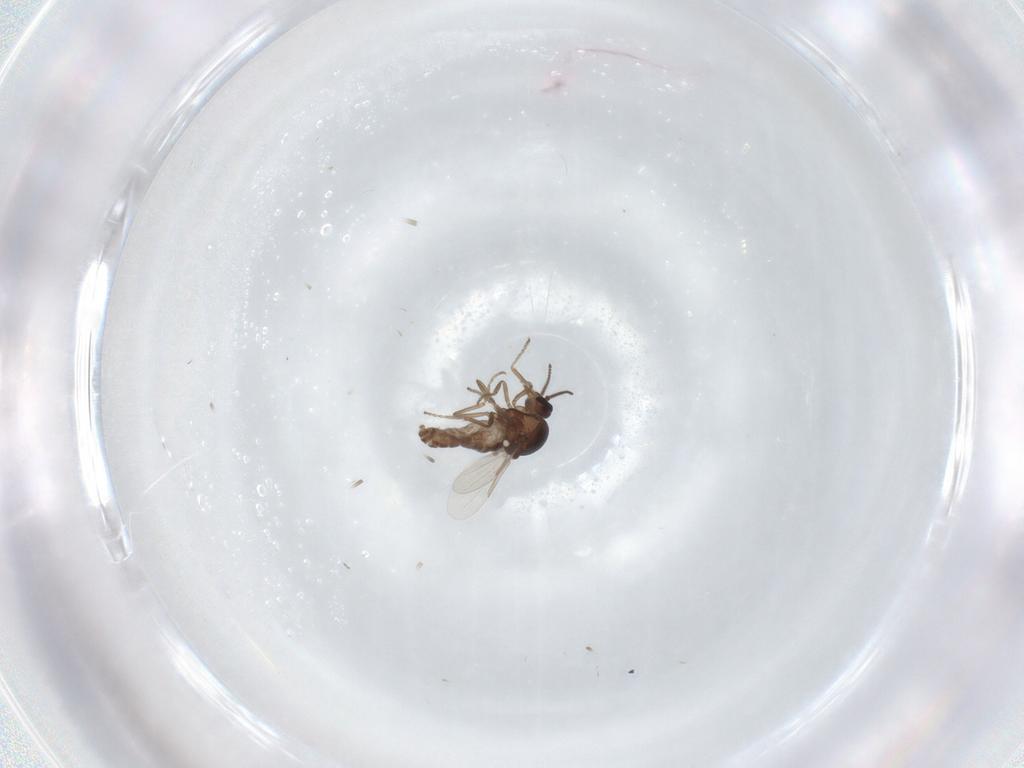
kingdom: Animalia
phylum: Arthropoda
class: Insecta
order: Diptera
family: Ceratopogonidae
